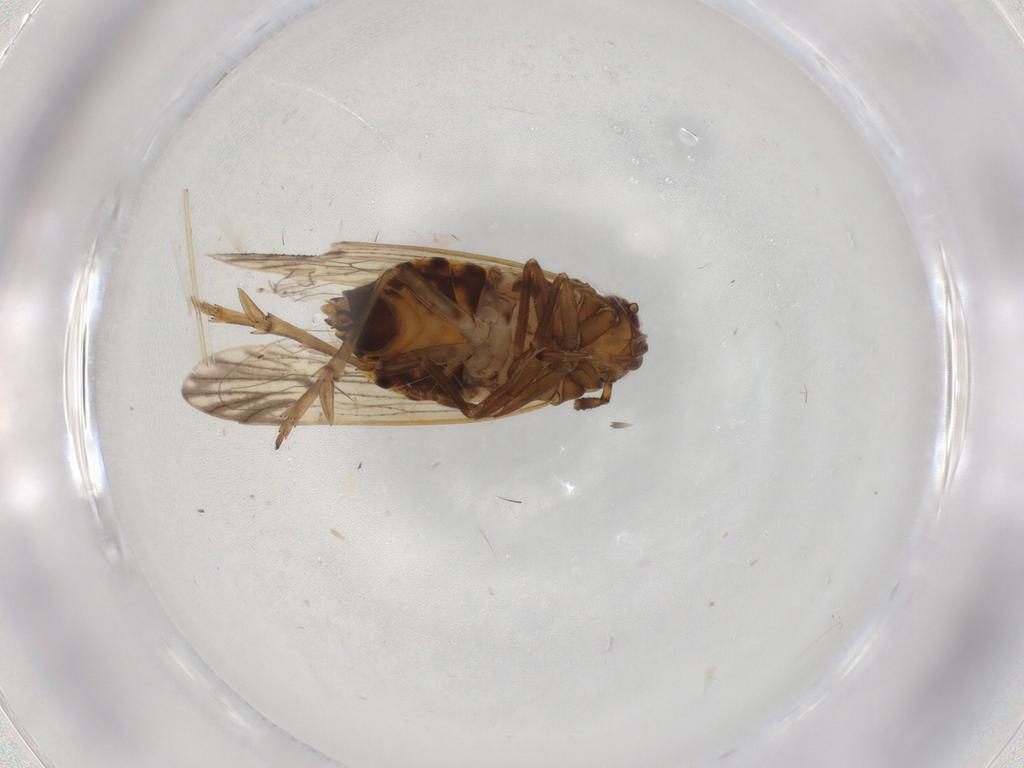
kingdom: Animalia
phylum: Arthropoda
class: Insecta
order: Hemiptera
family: Delphacidae
